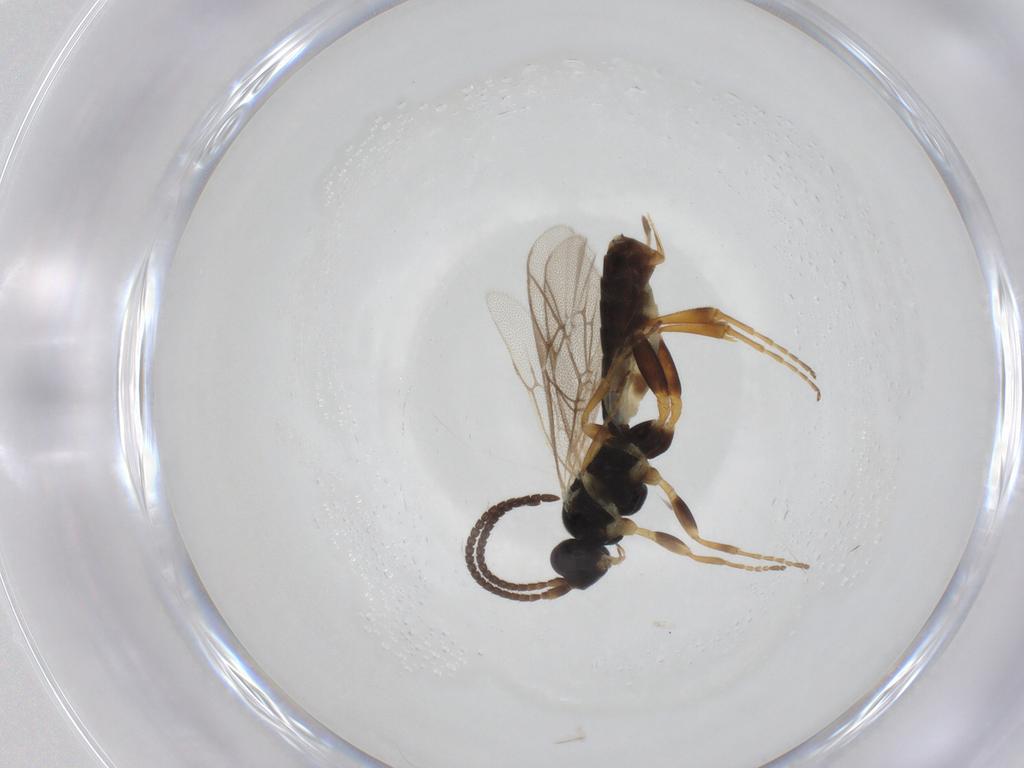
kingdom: Animalia
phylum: Arthropoda
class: Insecta
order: Hymenoptera
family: Ichneumonidae
